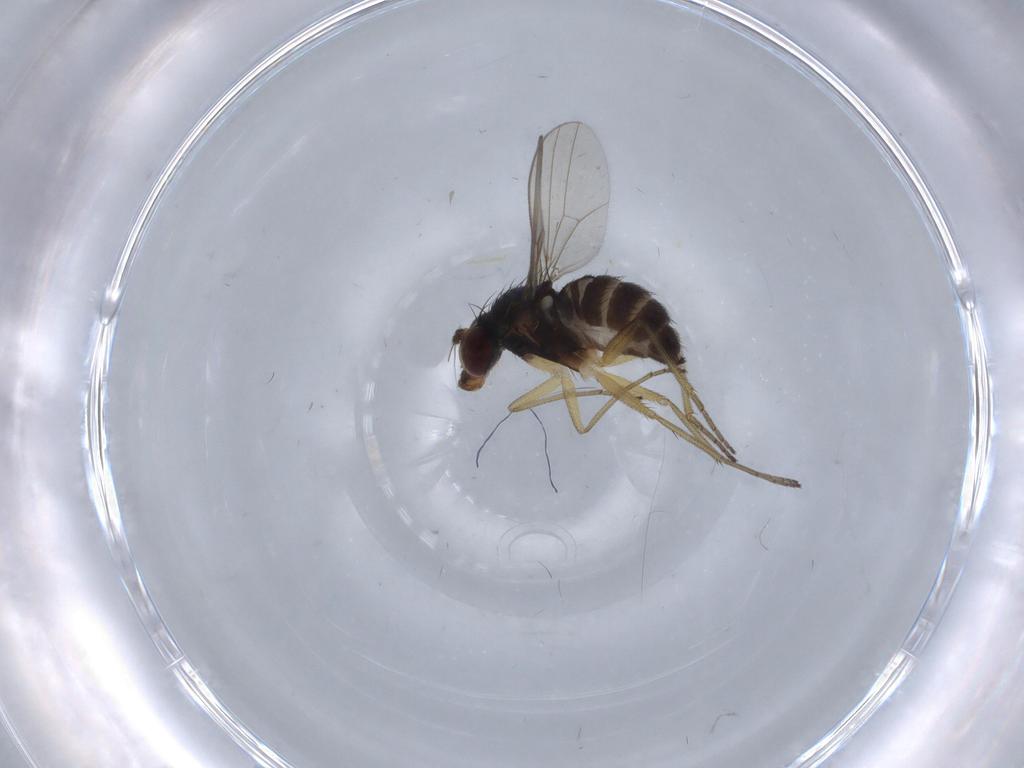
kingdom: Animalia
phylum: Arthropoda
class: Insecta
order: Diptera
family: Dolichopodidae
